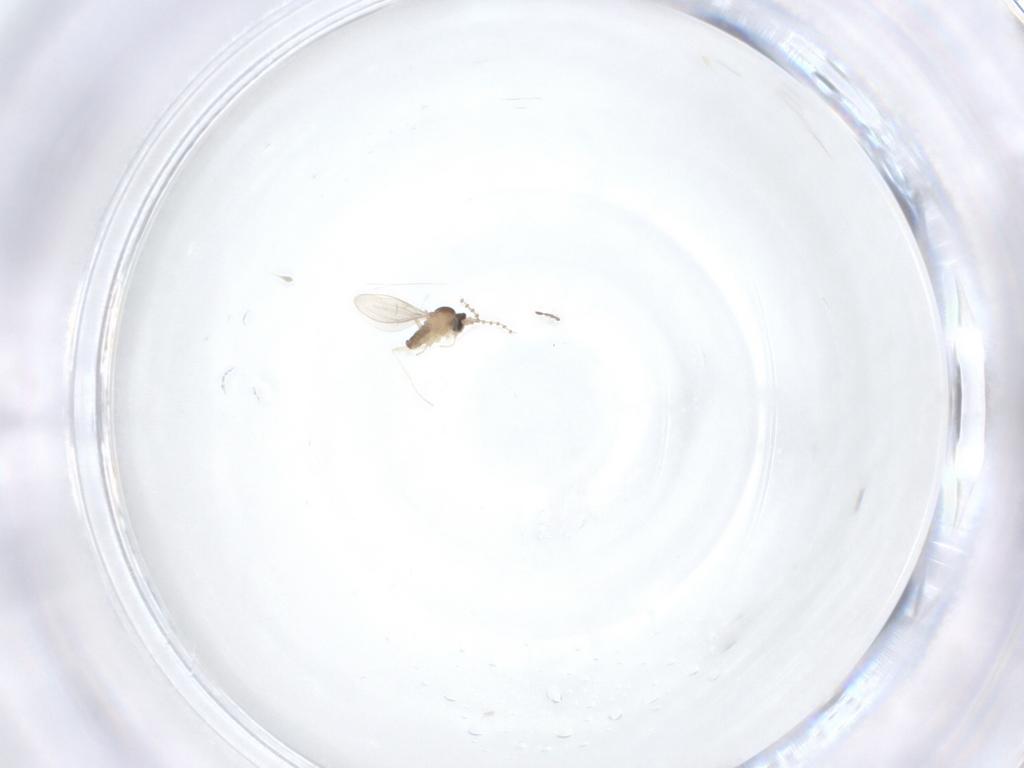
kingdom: Animalia
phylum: Arthropoda
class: Insecta
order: Diptera
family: Cecidomyiidae
